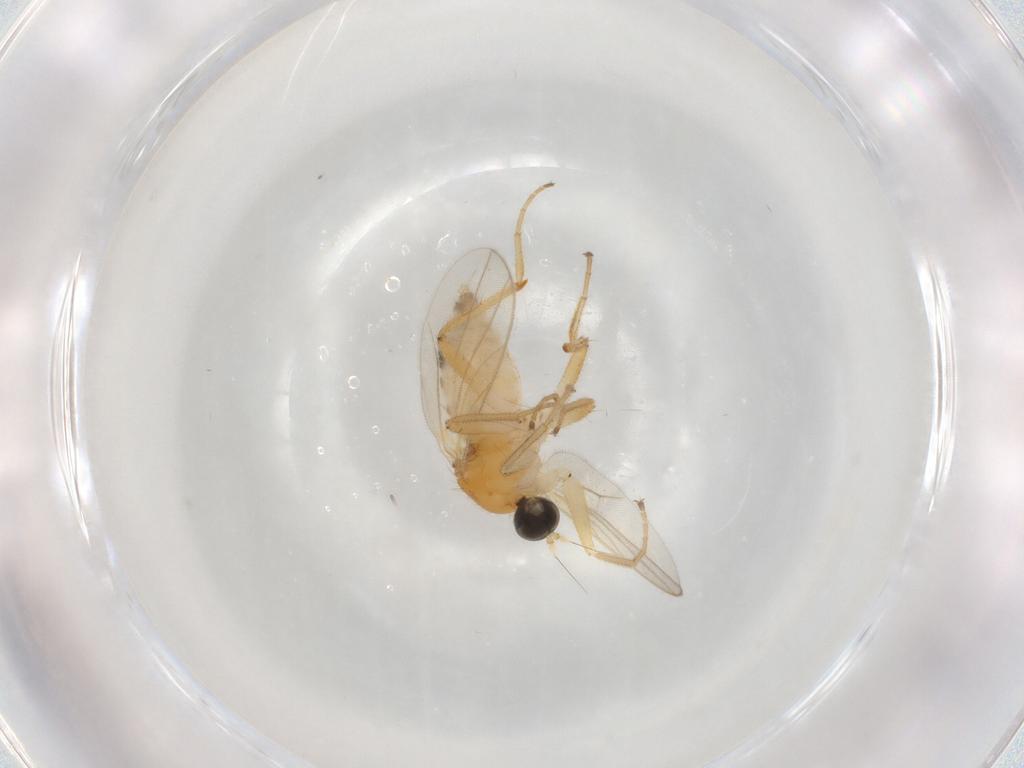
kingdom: Animalia
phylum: Arthropoda
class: Insecta
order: Diptera
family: Hybotidae
